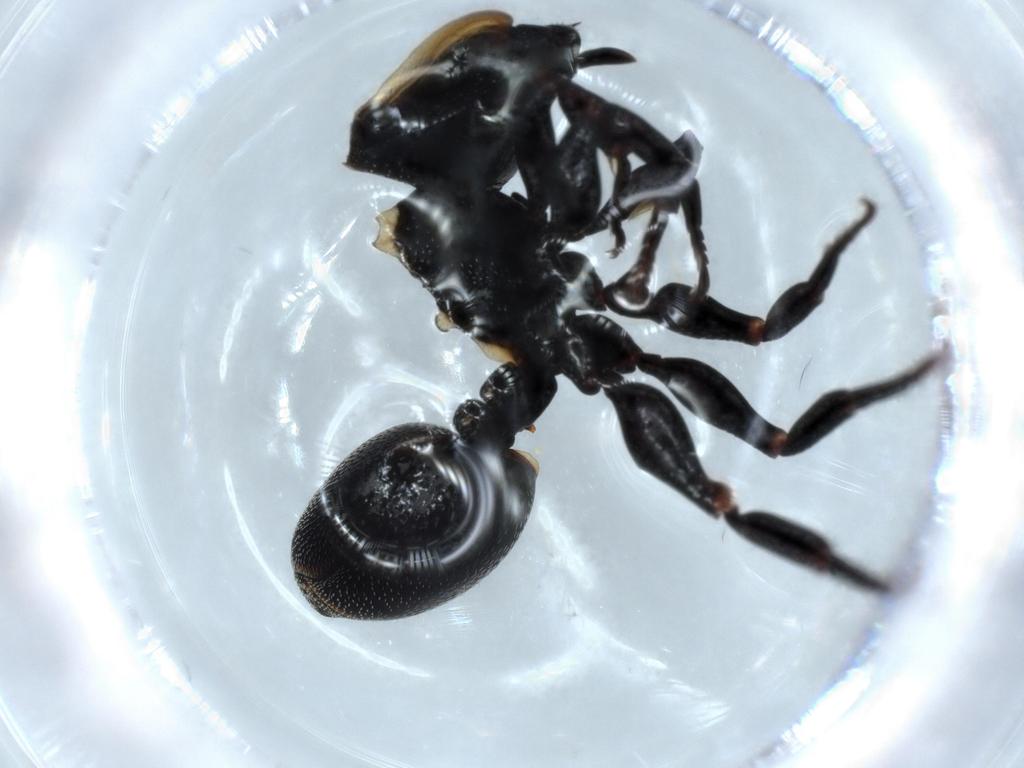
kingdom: Animalia
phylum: Arthropoda
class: Insecta
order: Hymenoptera
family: Formicidae
